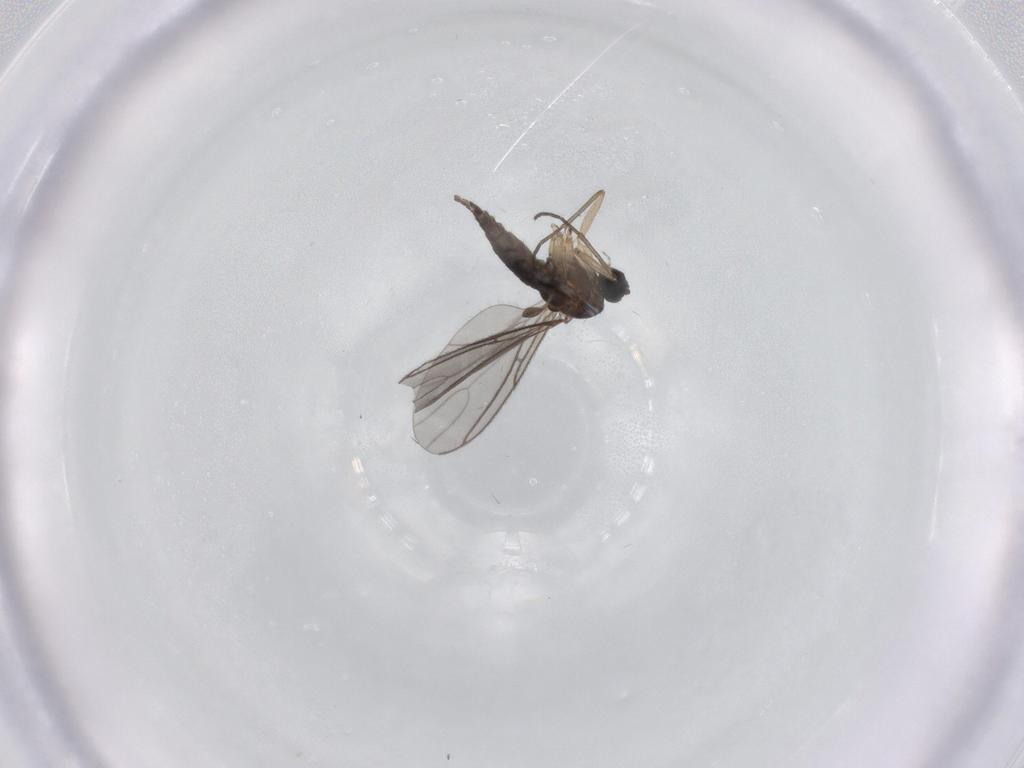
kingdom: Animalia
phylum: Arthropoda
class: Insecta
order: Diptera
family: Sciaridae
